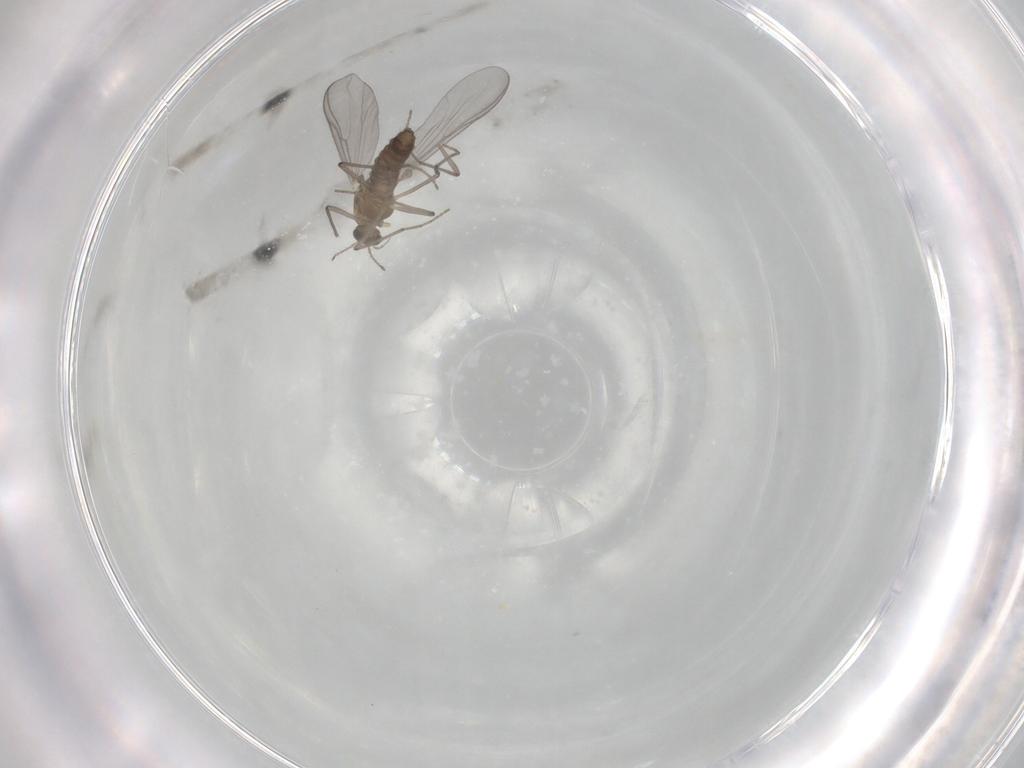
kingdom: Animalia
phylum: Arthropoda
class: Insecta
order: Diptera
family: Chironomidae
